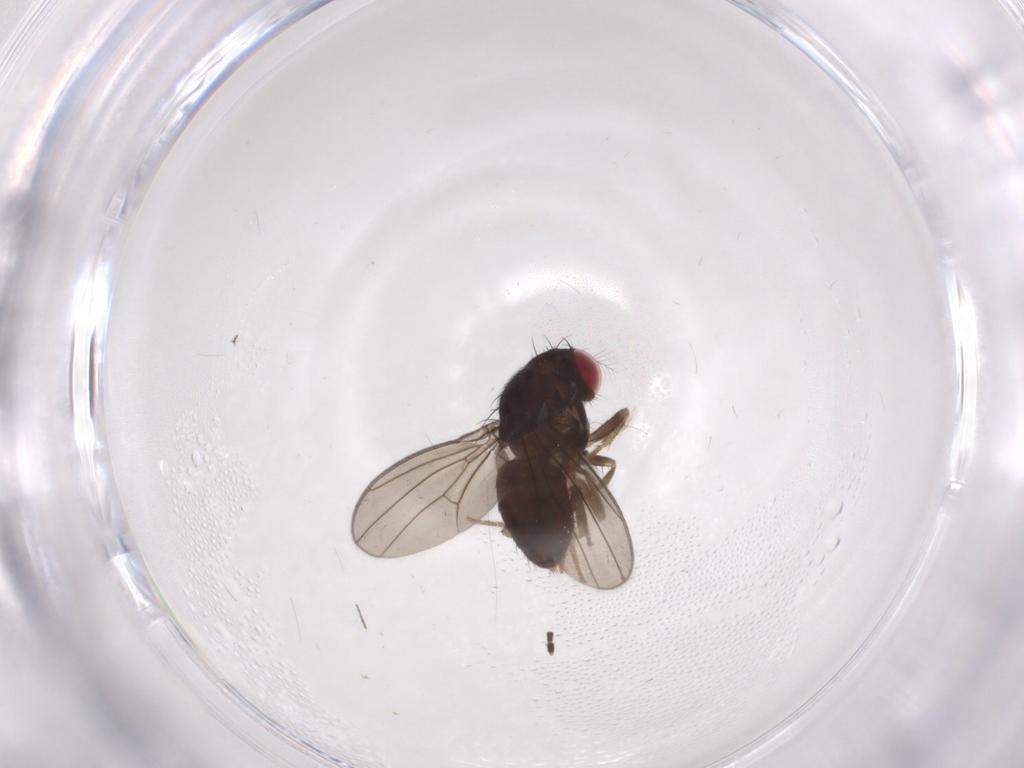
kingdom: Animalia
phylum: Arthropoda
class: Insecta
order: Diptera
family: Drosophilidae
